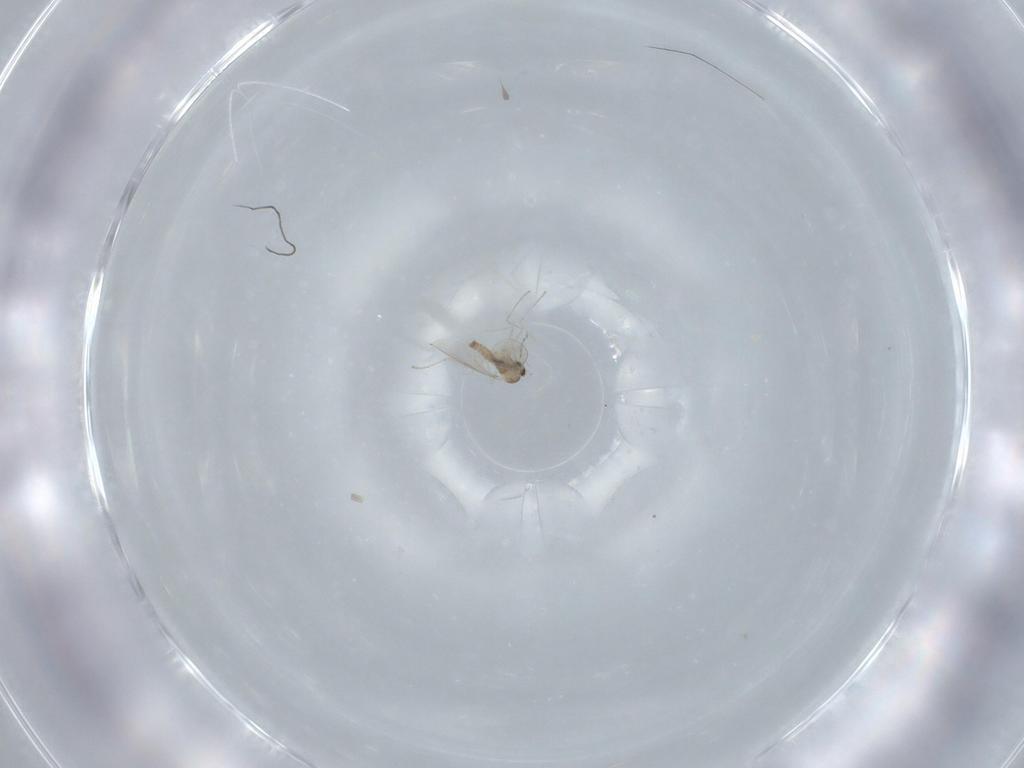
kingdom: Animalia
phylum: Arthropoda
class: Insecta
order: Diptera
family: Cecidomyiidae
